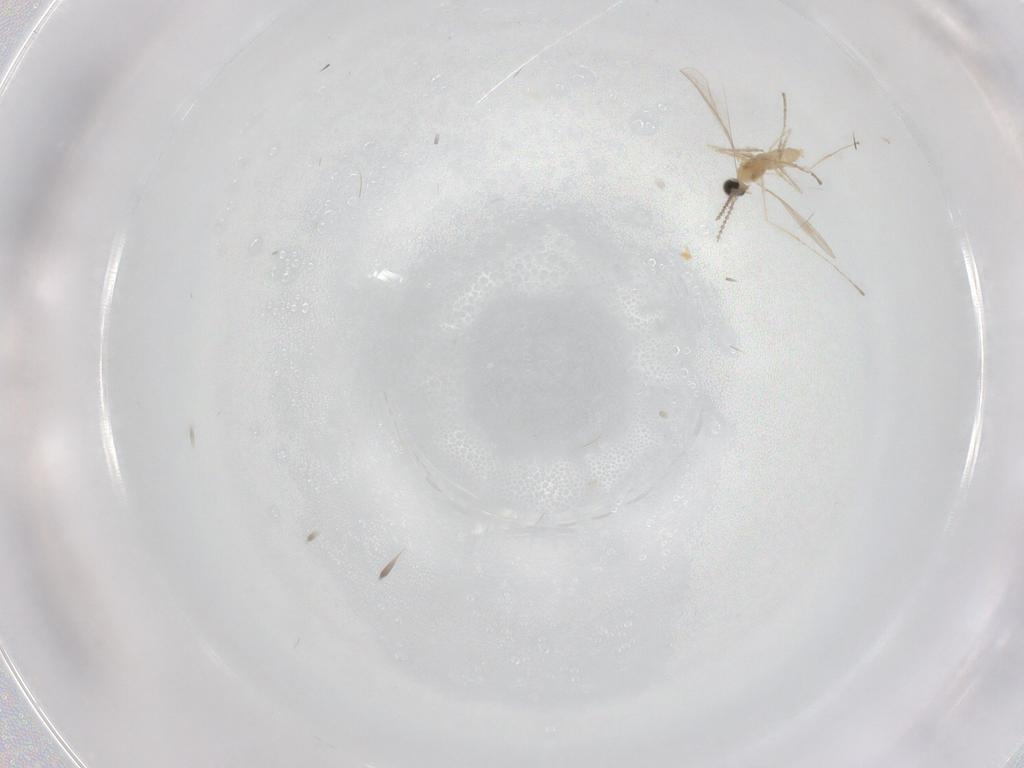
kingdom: Animalia
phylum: Arthropoda
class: Insecta
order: Diptera
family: Cecidomyiidae
